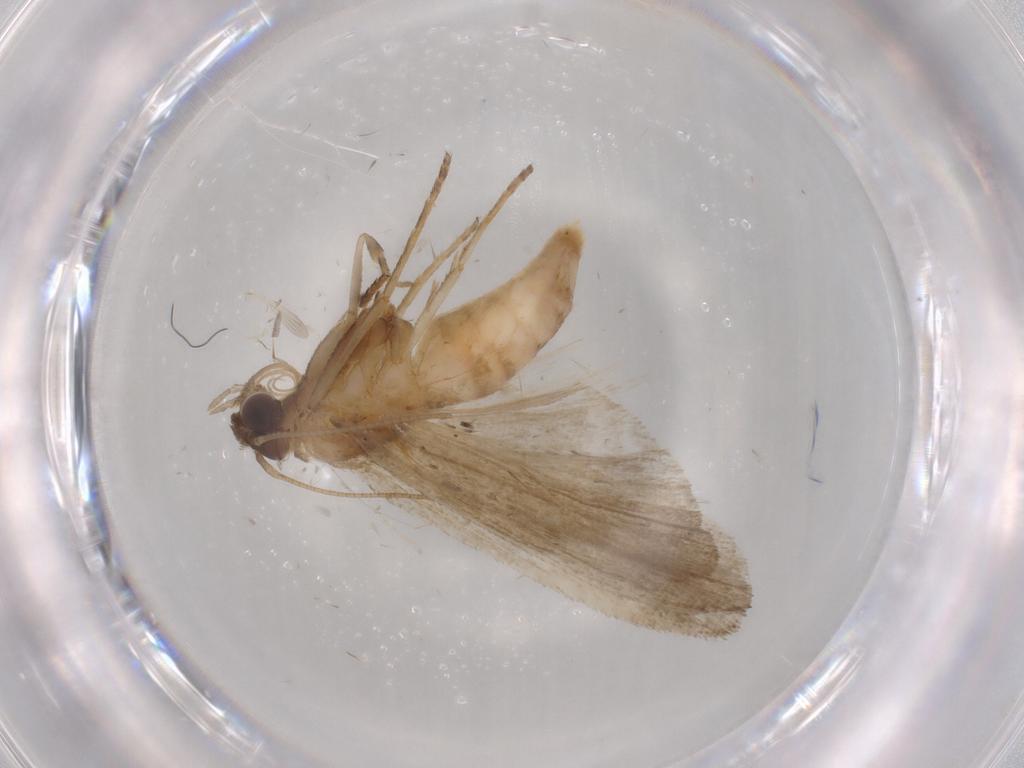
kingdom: Animalia
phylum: Arthropoda
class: Insecta
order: Lepidoptera
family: Noctuidae
